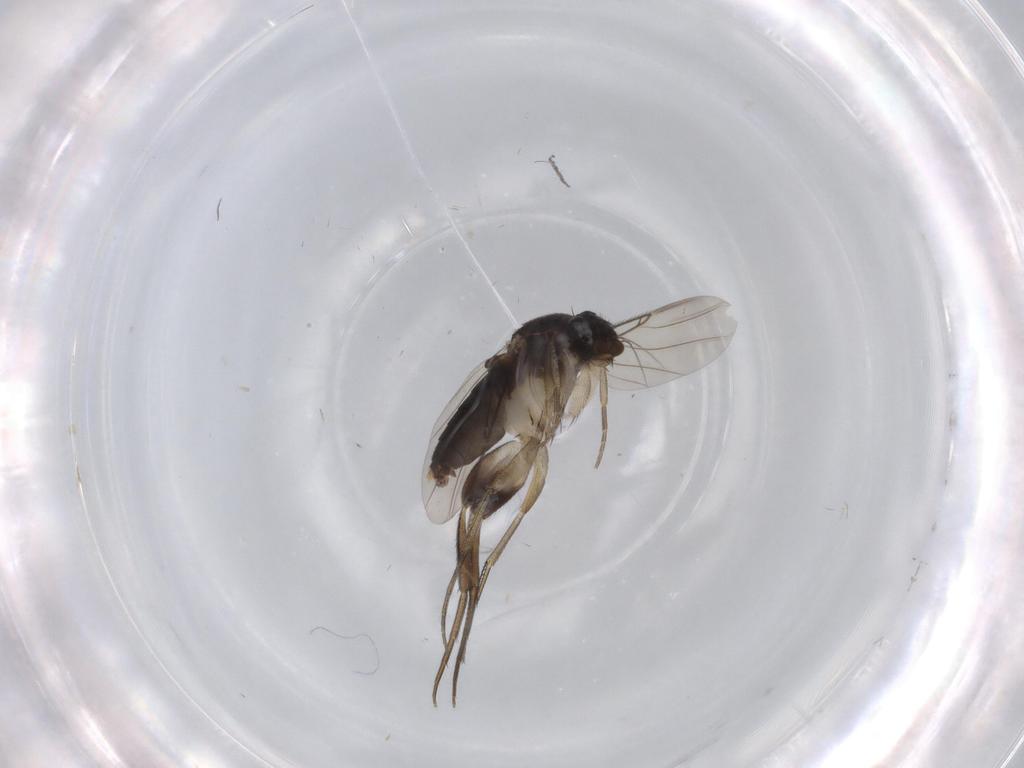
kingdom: Animalia
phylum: Arthropoda
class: Insecta
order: Diptera
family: Phoridae
